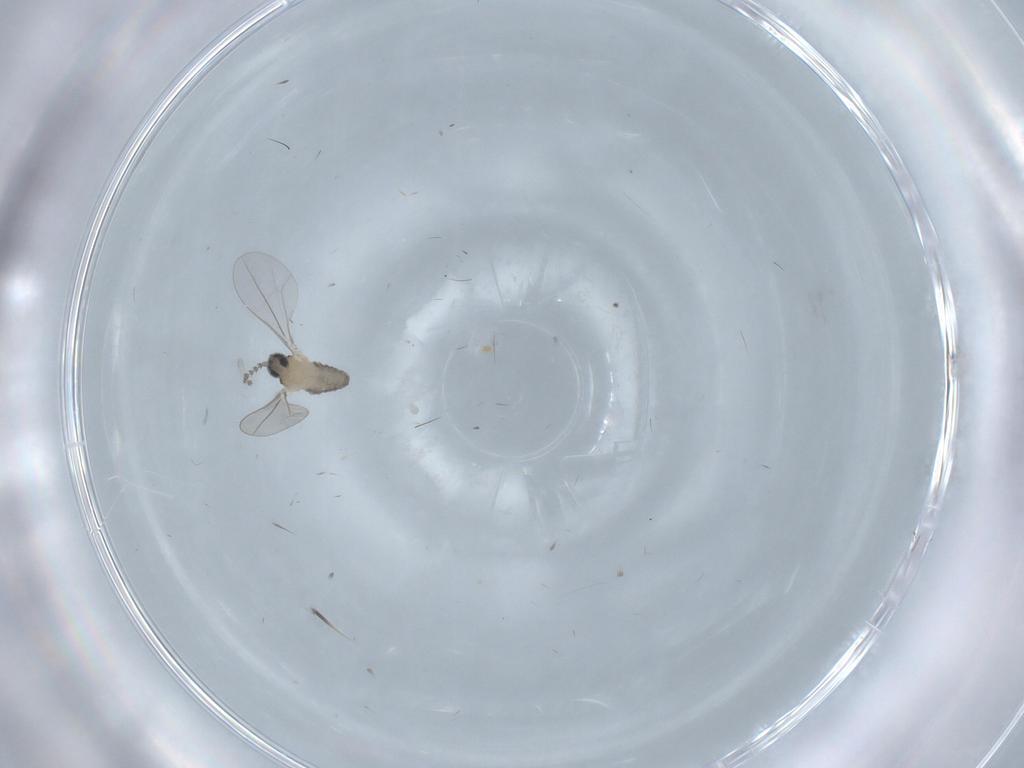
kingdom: Animalia
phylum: Arthropoda
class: Insecta
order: Diptera
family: Cecidomyiidae
